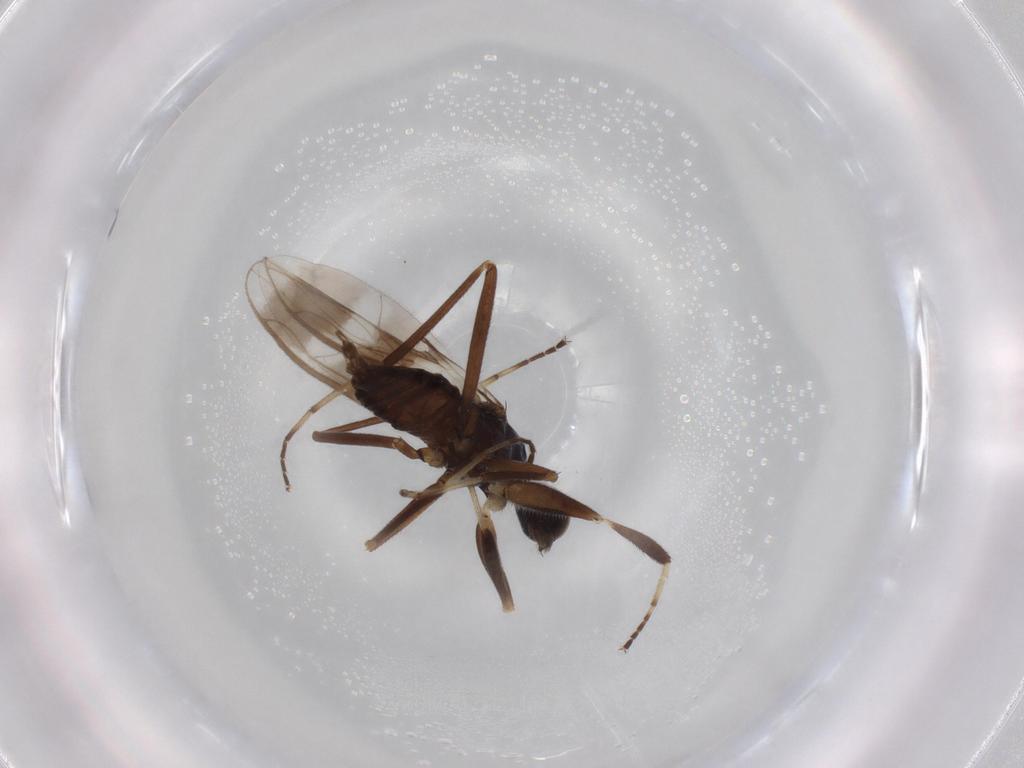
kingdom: Animalia
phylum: Arthropoda
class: Insecta
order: Diptera
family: Hybotidae
